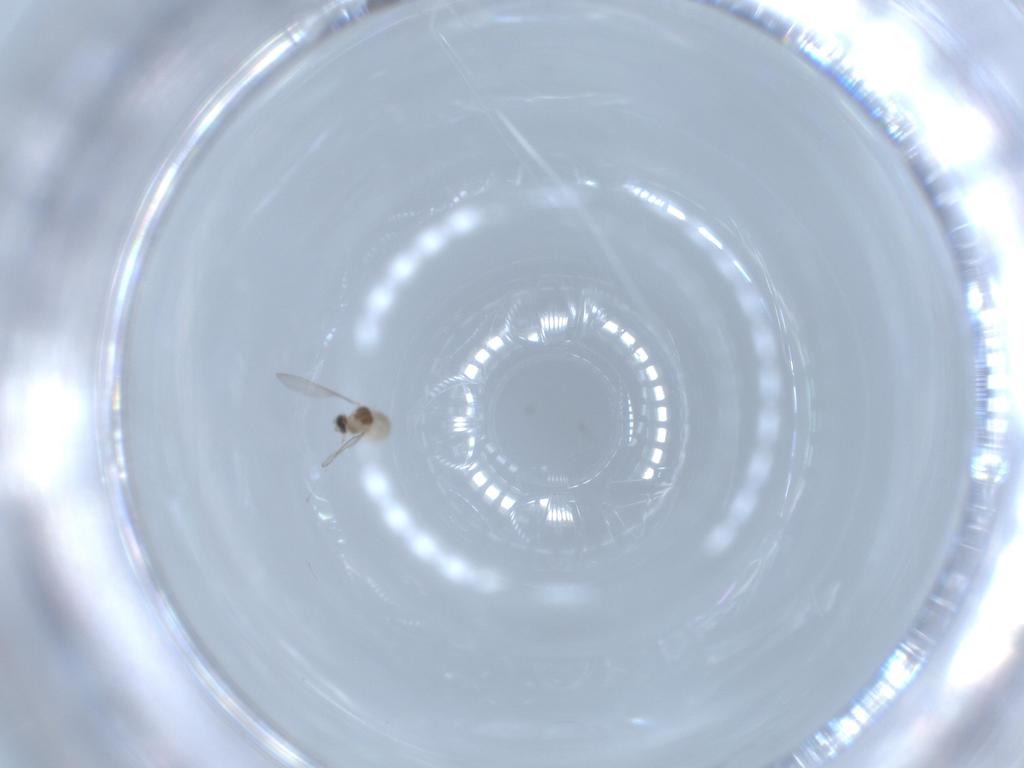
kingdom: Animalia
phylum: Arthropoda
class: Insecta
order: Diptera
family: Cecidomyiidae
